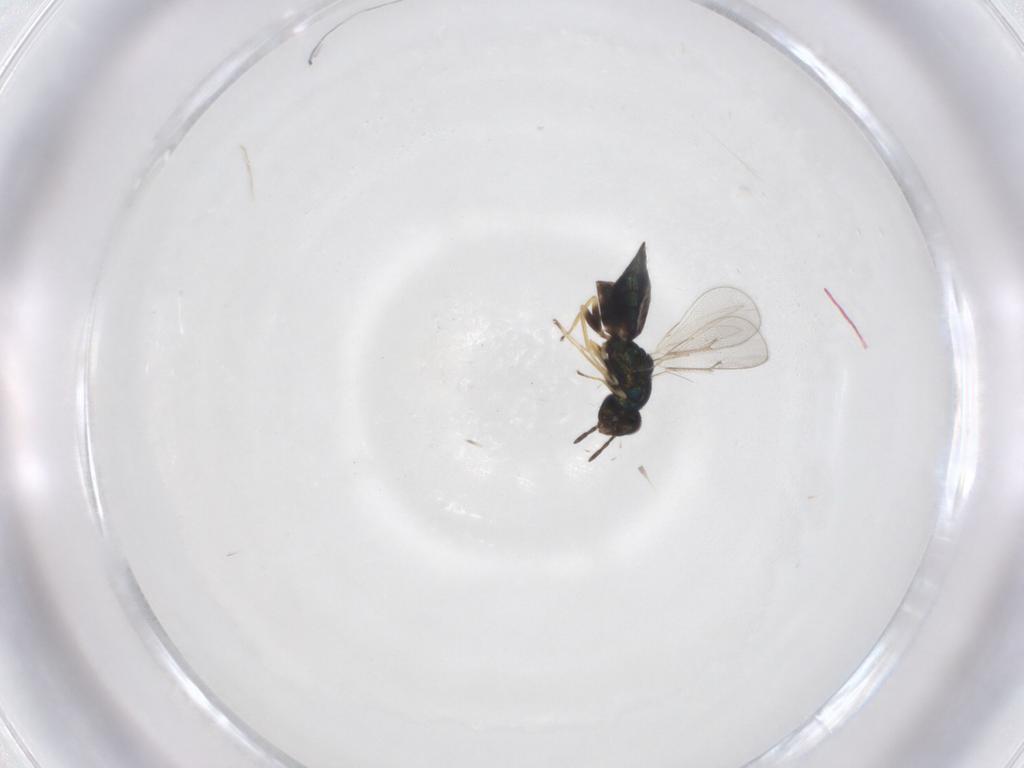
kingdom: Animalia
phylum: Arthropoda
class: Insecta
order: Hymenoptera
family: Eulophidae
